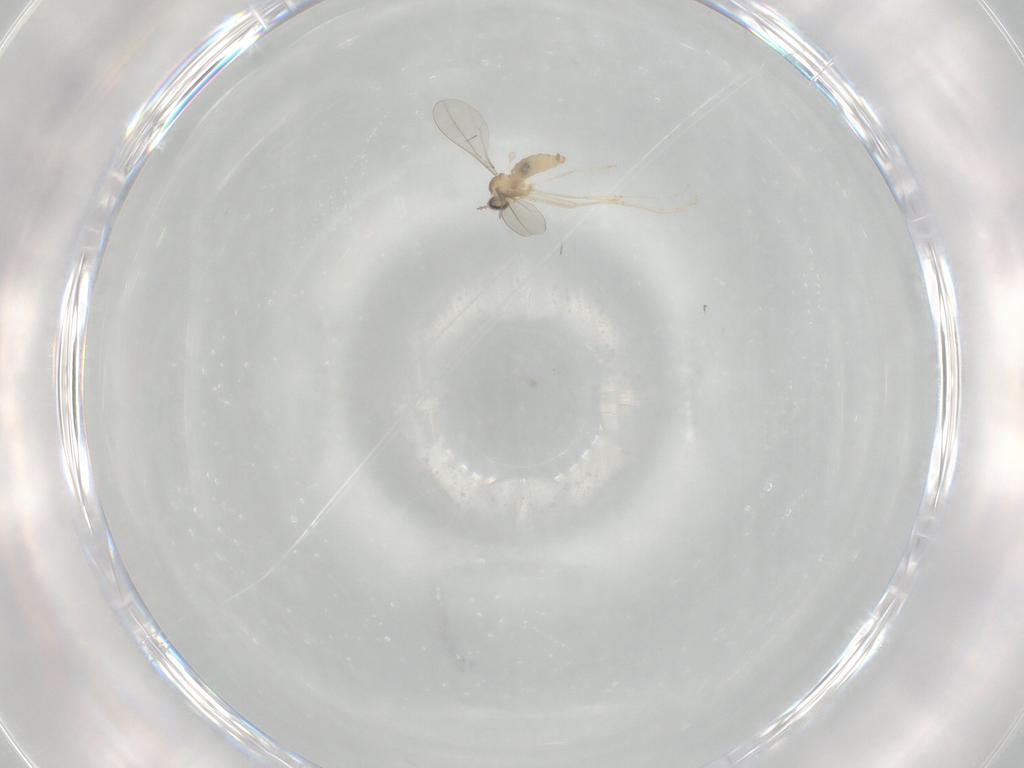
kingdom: Animalia
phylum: Arthropoda
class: Insecta
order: Diptera
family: Cecidomyiidae
